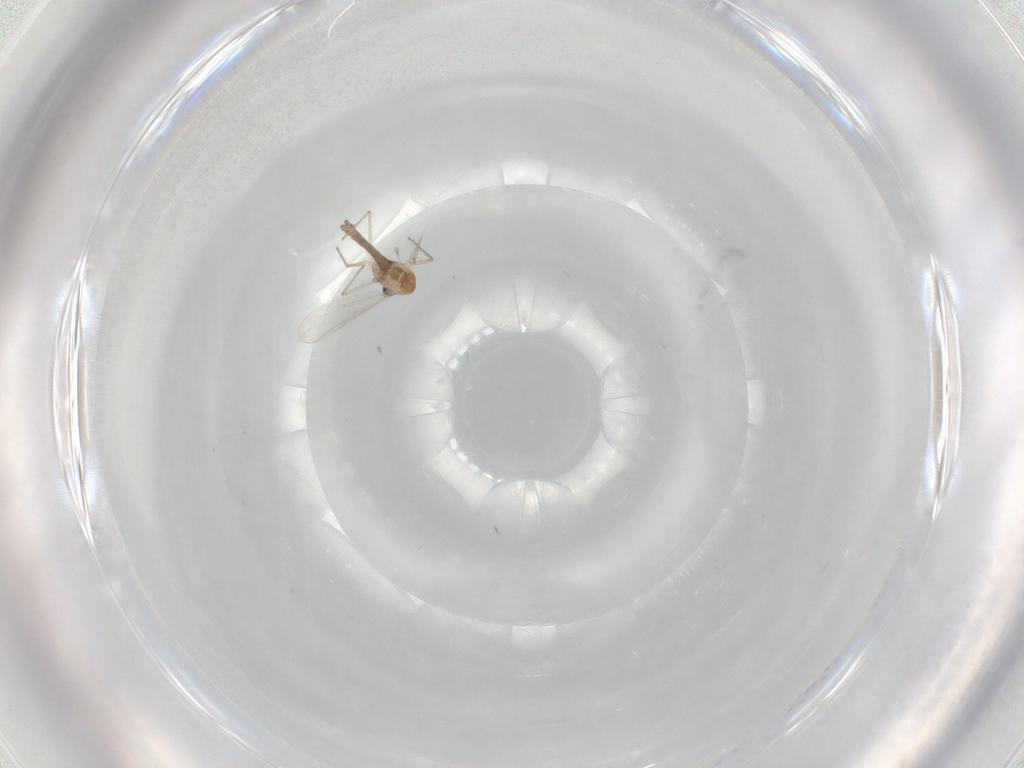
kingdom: Animalia
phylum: Arthropoda
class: Insecta
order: Diptera
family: Chironomidae
